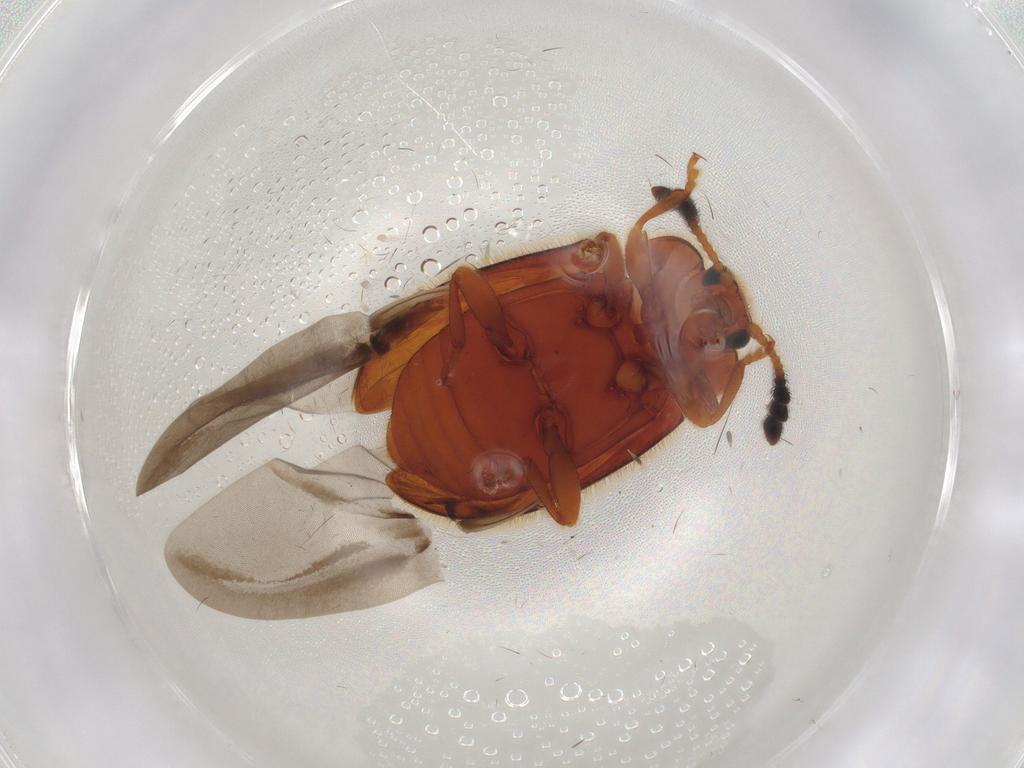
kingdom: Animalia
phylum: Arthropoda
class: Insecta
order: Coleoptera
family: Endomychidae
